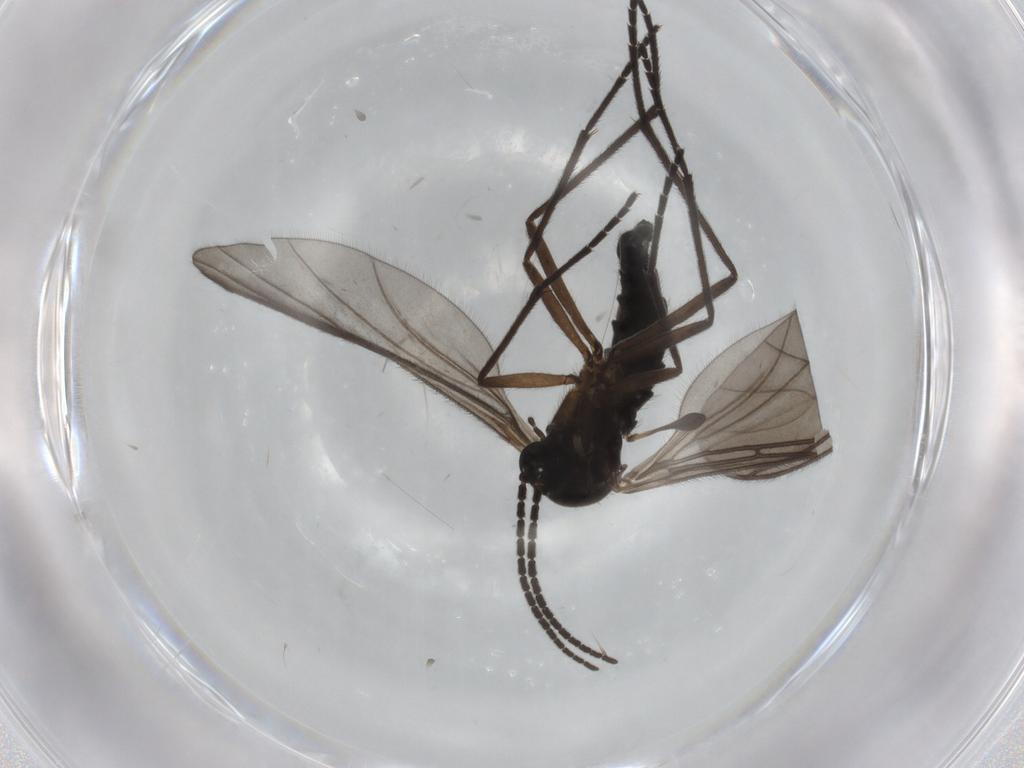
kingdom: Animalia
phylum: Arthropoda
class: Insecta
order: Diptera
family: Sciaridae
